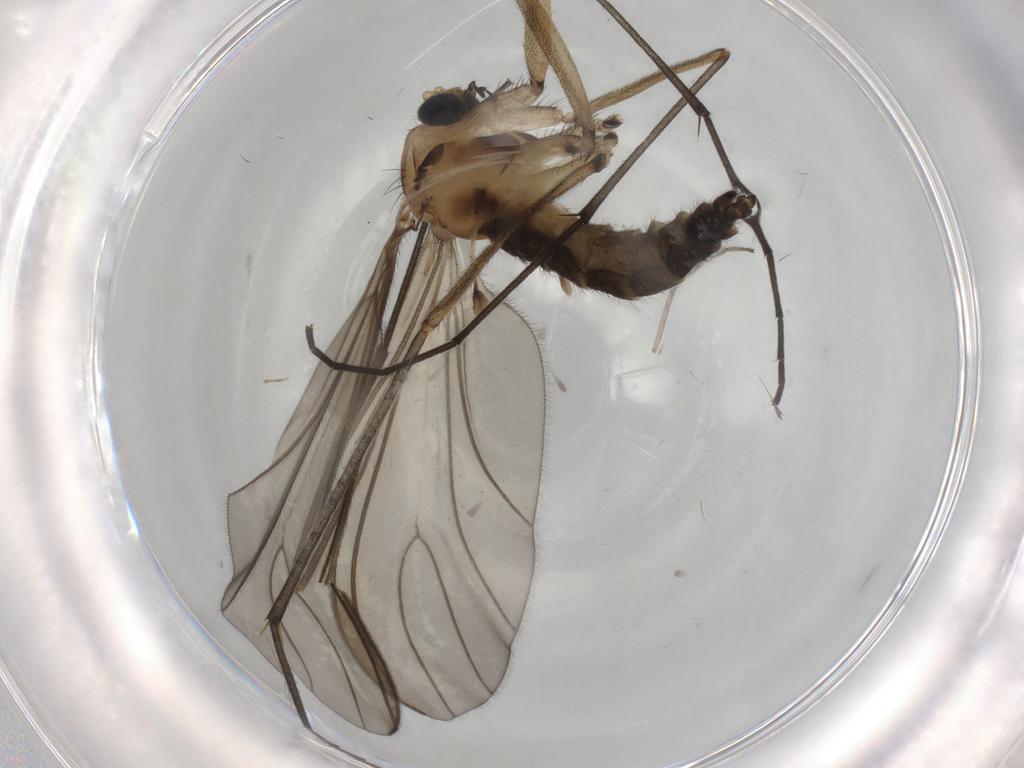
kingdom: Animalia
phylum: Arthropoda
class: Insecta
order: Diptera
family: Sciaridae
